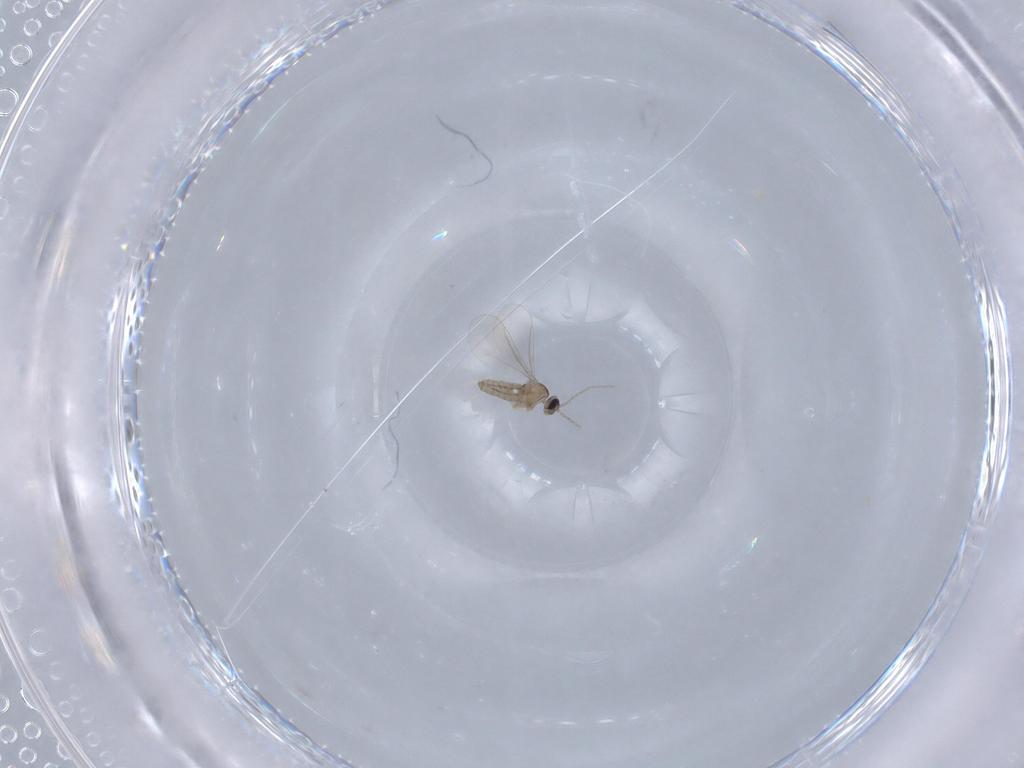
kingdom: Animalia
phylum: Arthropoda
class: Insecta
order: Diptera
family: Cecidomyiidae
